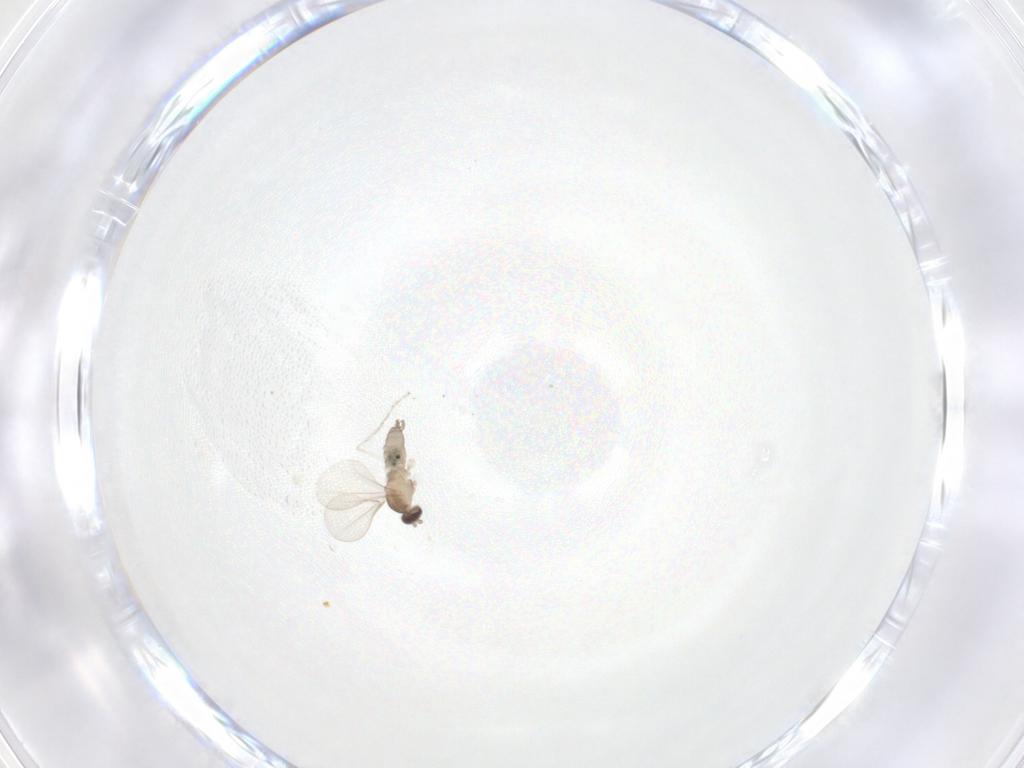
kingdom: Animalia
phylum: Arthropoda
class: Insecta
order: Diptera
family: Cecidomyiidae
